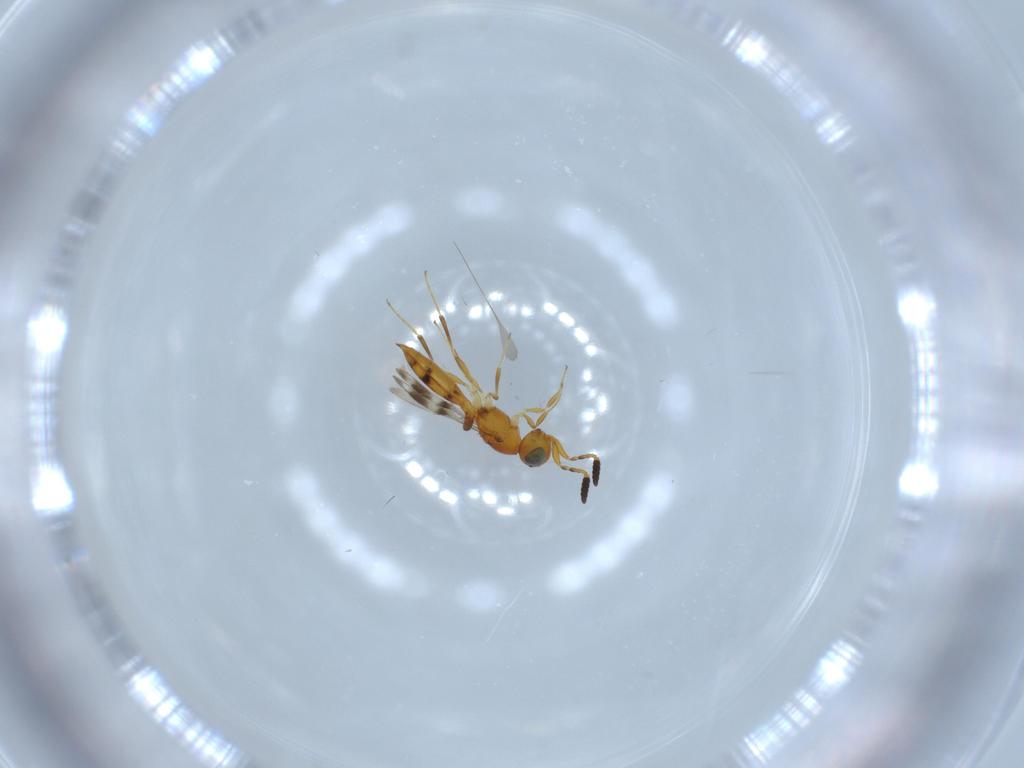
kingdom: Animalia
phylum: Arthropoda
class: Insecta
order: Hymenoptera
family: Scelionidae
